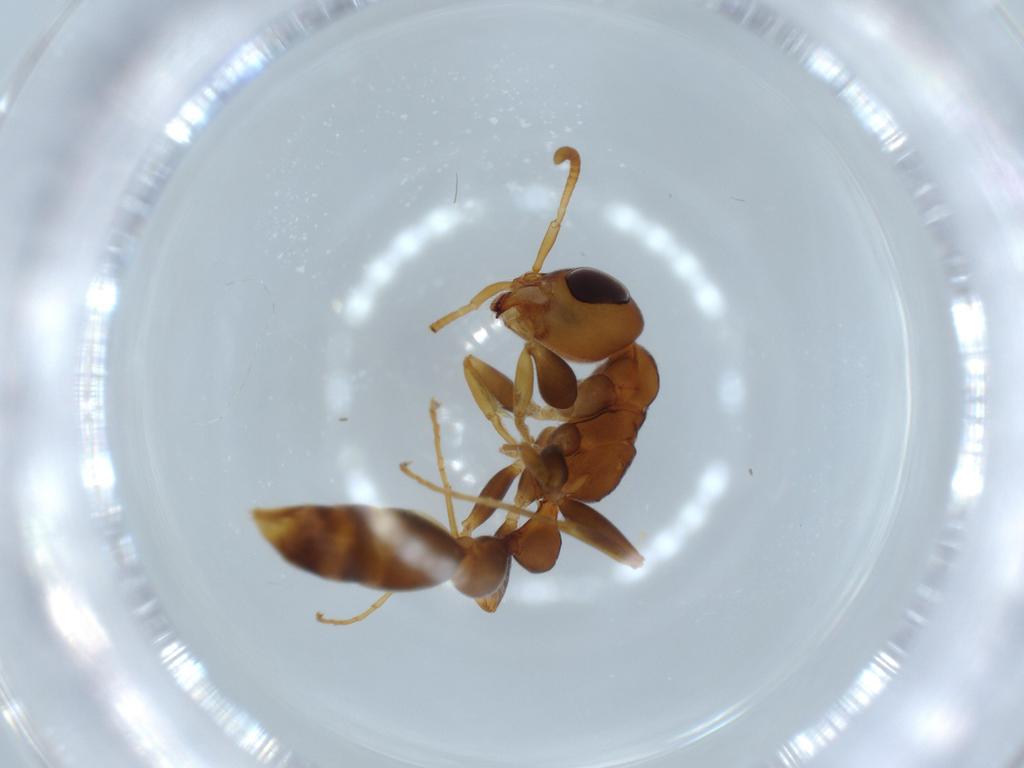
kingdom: Animalia
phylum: Arthropoda
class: Insecta
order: Hymenoptera
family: Formicidae
